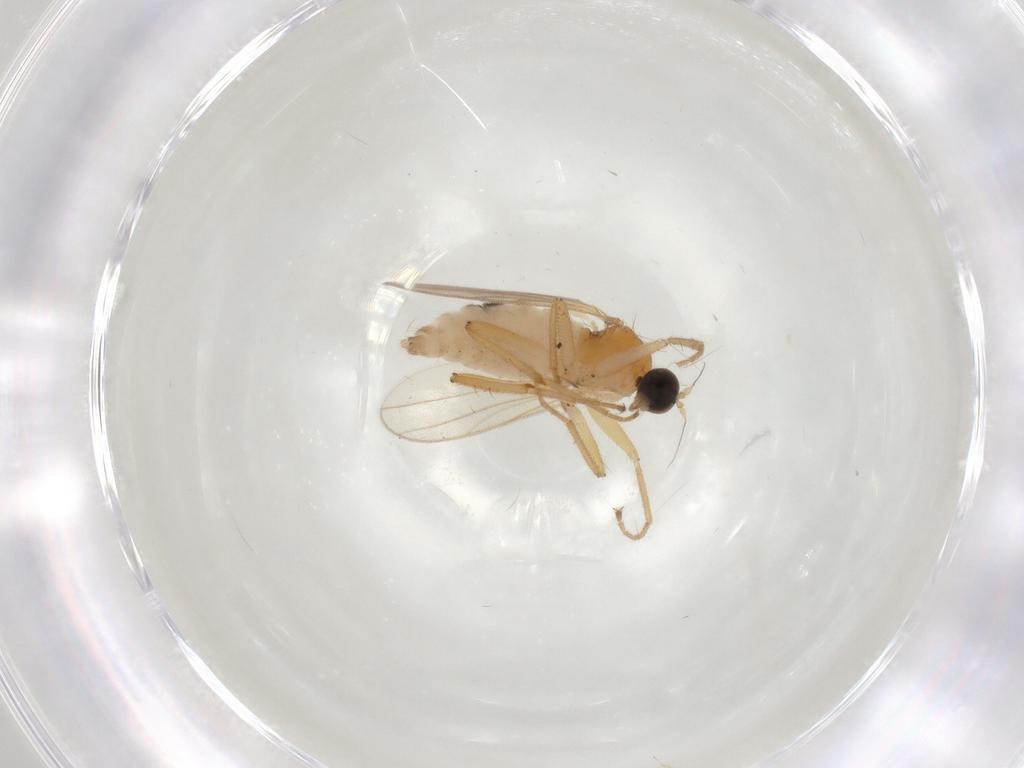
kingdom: Animalia
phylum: Arthropoda
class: Insecta
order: Diptera
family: Hybotidae
